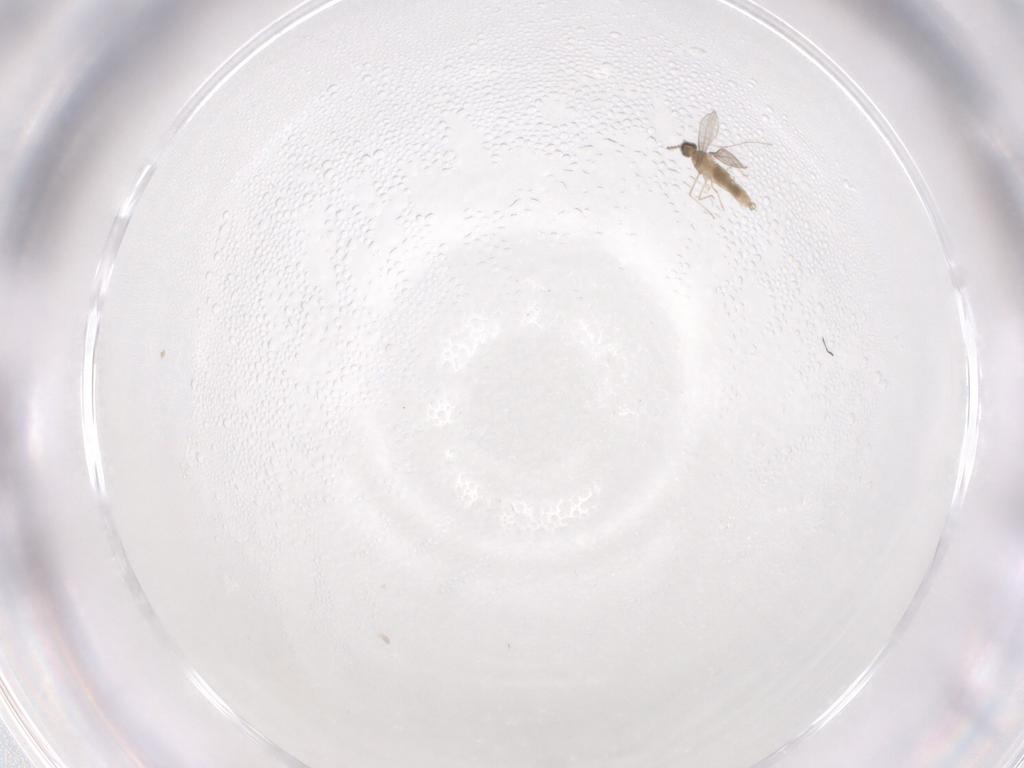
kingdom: Animalia
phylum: Arthropoda
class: Insecta
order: Diptera
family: Cecidomyiidae
